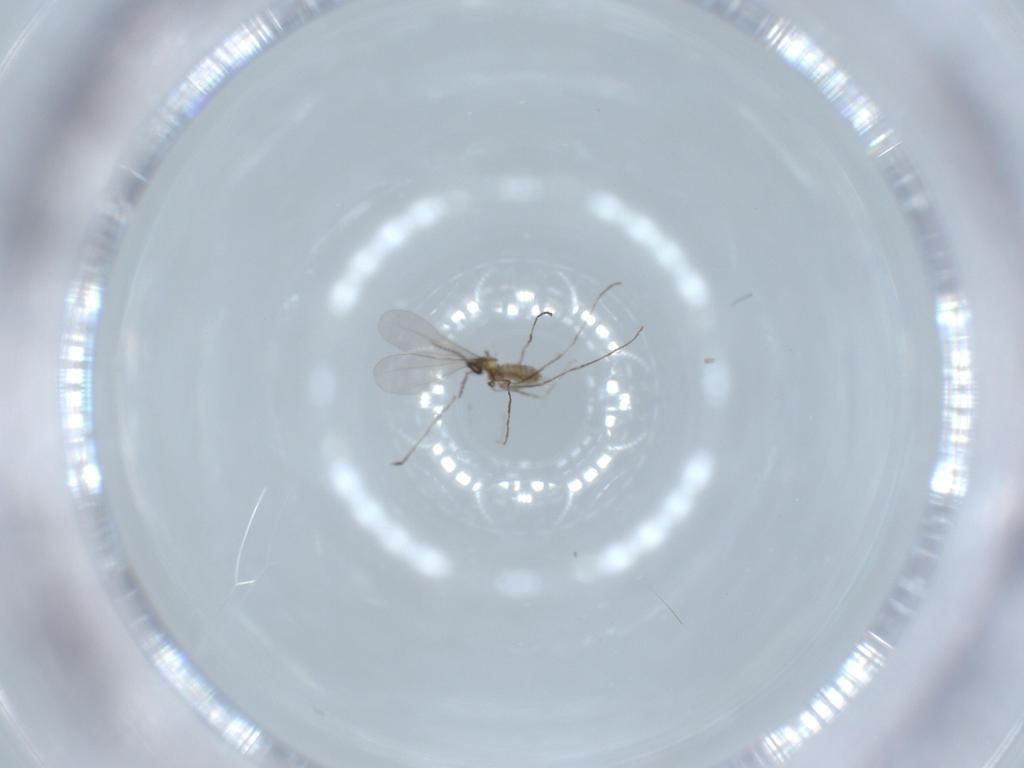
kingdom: Animalia
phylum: Arthropoda
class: Insecta
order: Diptera
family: Cecidomyiidae
